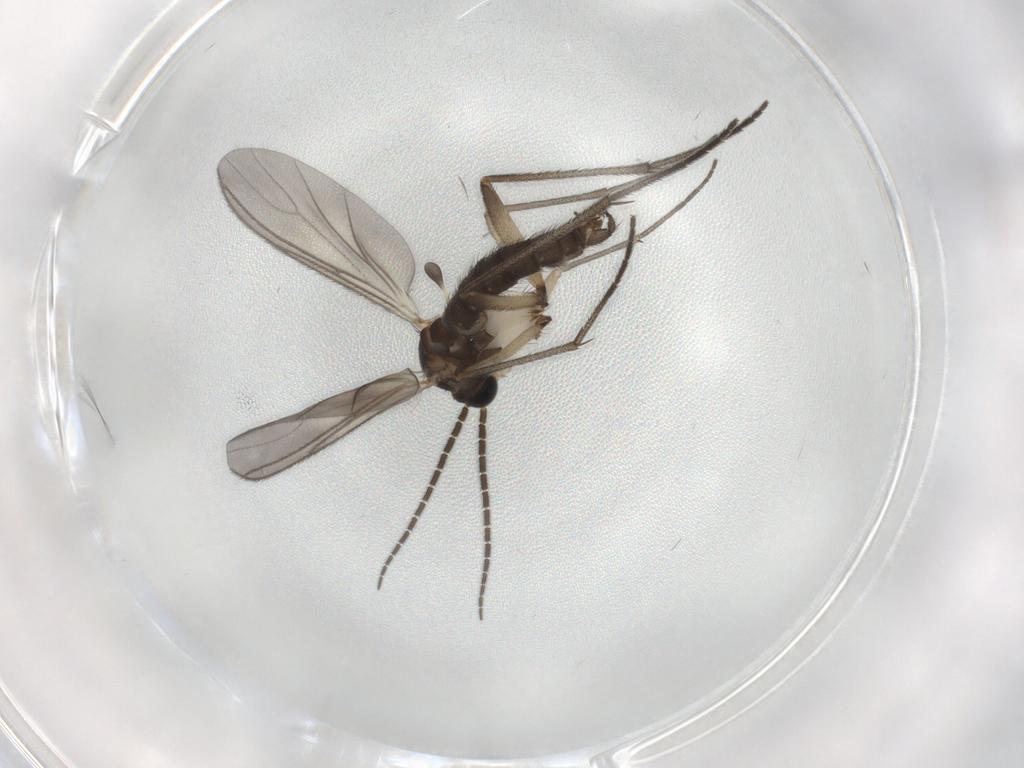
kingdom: Animalia
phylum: Arthropoda
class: Insecta
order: Diptera
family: Sciaridae
